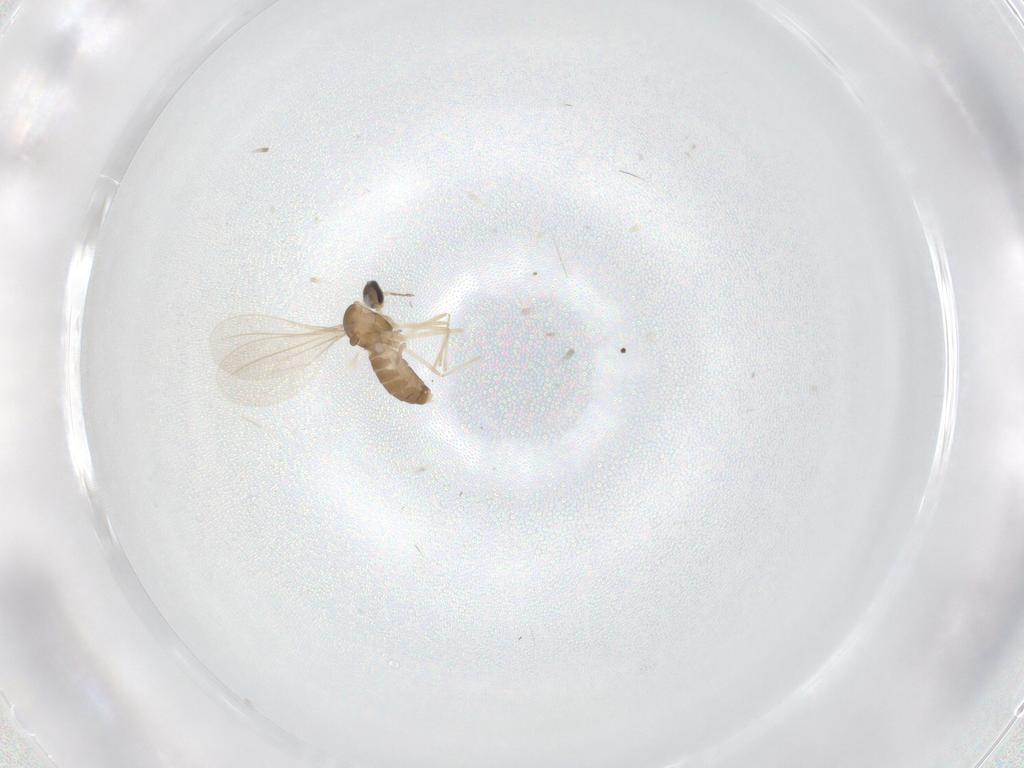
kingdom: Animalia
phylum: Arthropoda
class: Insecta
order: Diptera
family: Cecidomyiidae
